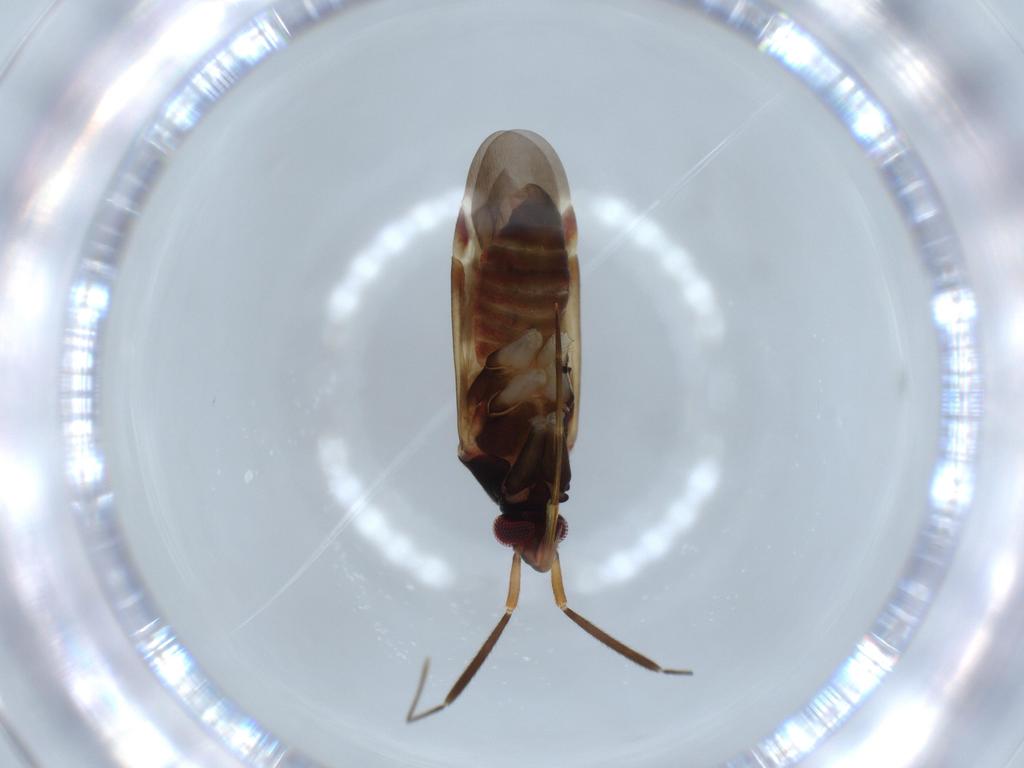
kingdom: Animalia
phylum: Arthropoda
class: Insecta
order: Hemiptera
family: Miridae
